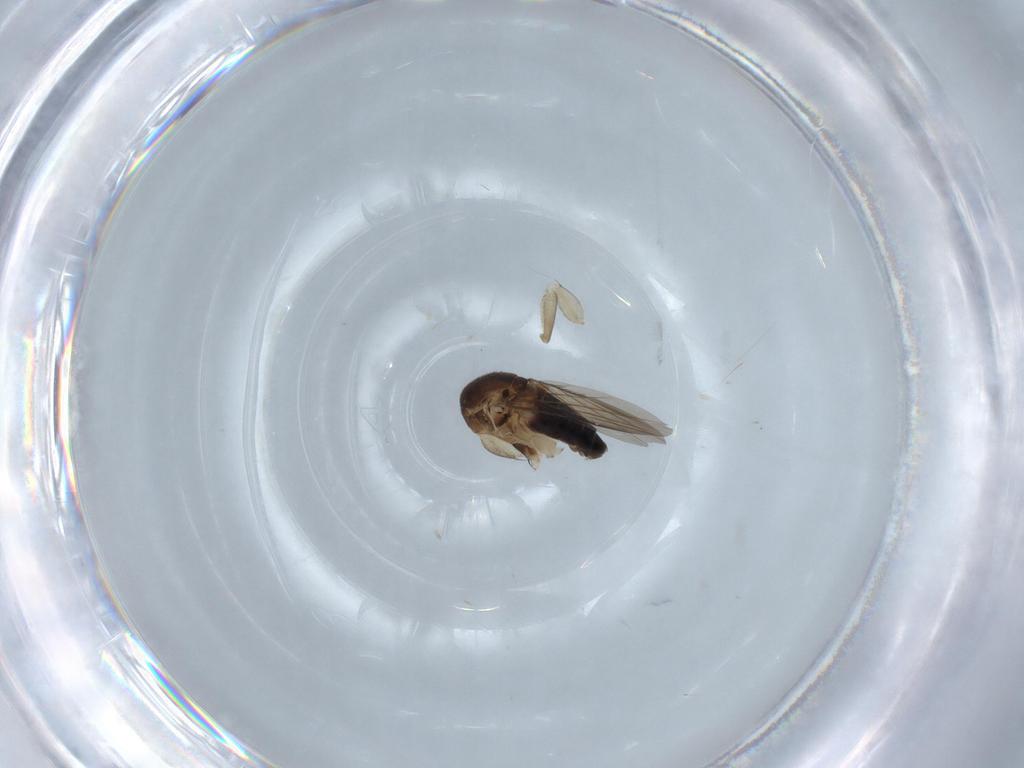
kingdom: Animalia
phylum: Arthropoda
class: Insecta
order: Diptera
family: Phoridae
